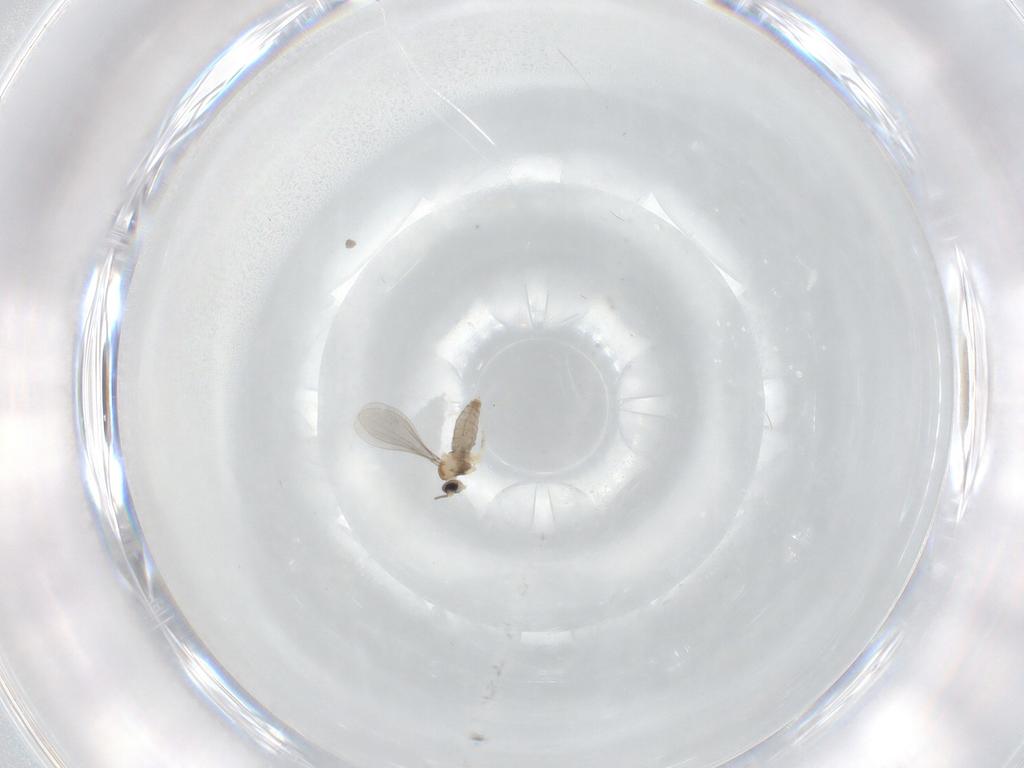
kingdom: Animalia
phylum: Arthropoda
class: Insecta
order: Diptera
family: Cecidomyiidae
